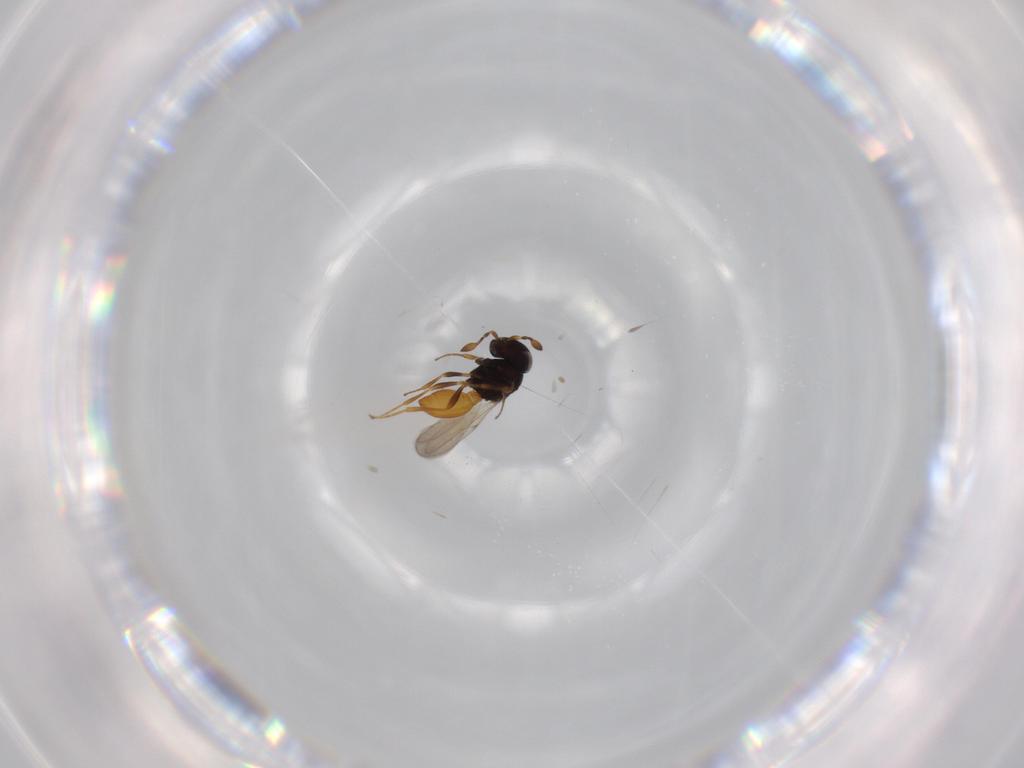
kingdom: Animalia
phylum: Arthropoda
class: Insecta
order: Hymenoptera
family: Scelionidae
